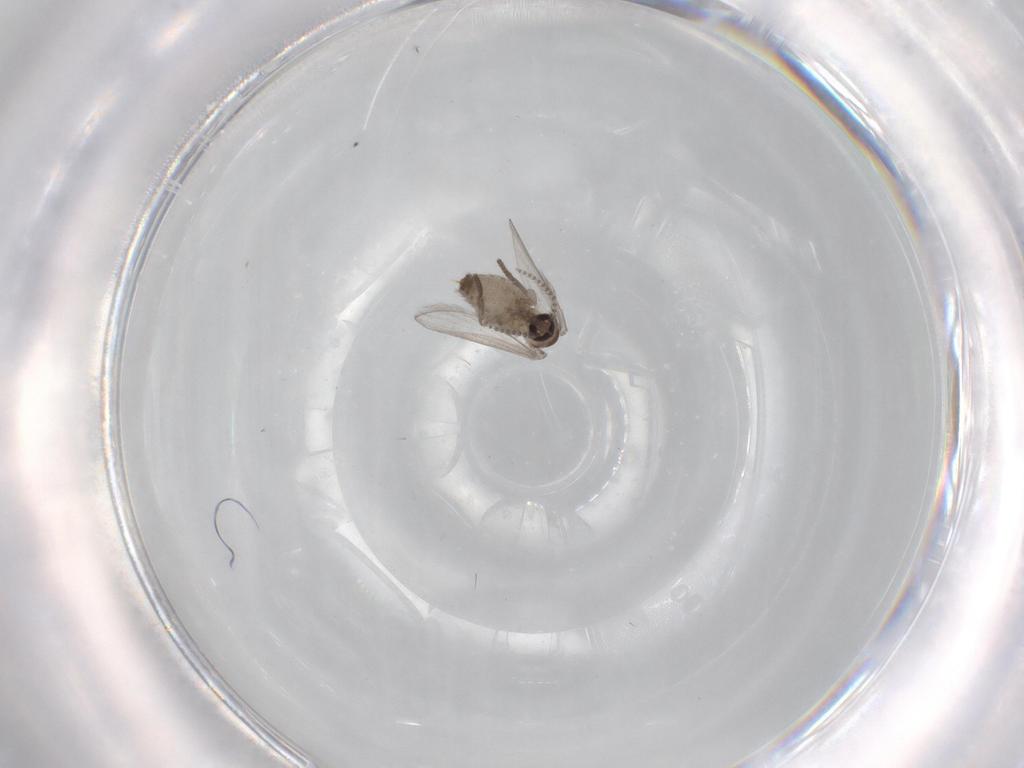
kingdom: Animalia
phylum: Arthropoda
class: Insecta
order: Diptera
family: Psychodidae
